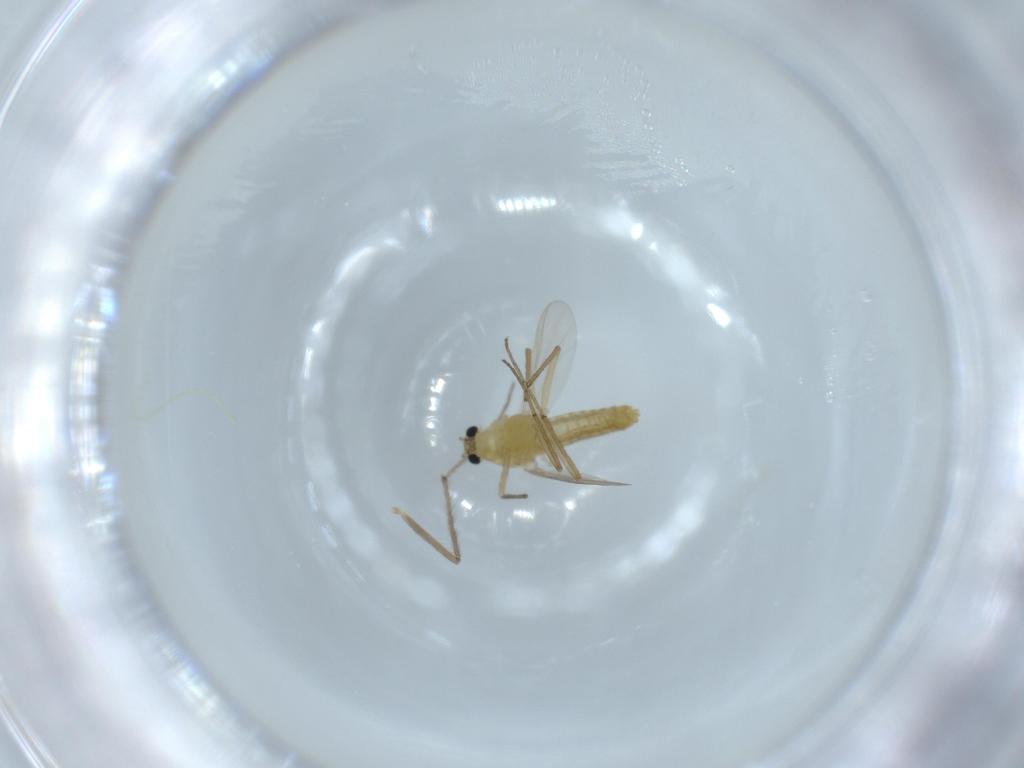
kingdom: Animalia
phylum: Arthropoda
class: Insecta
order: Diptera
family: Chironomidae
